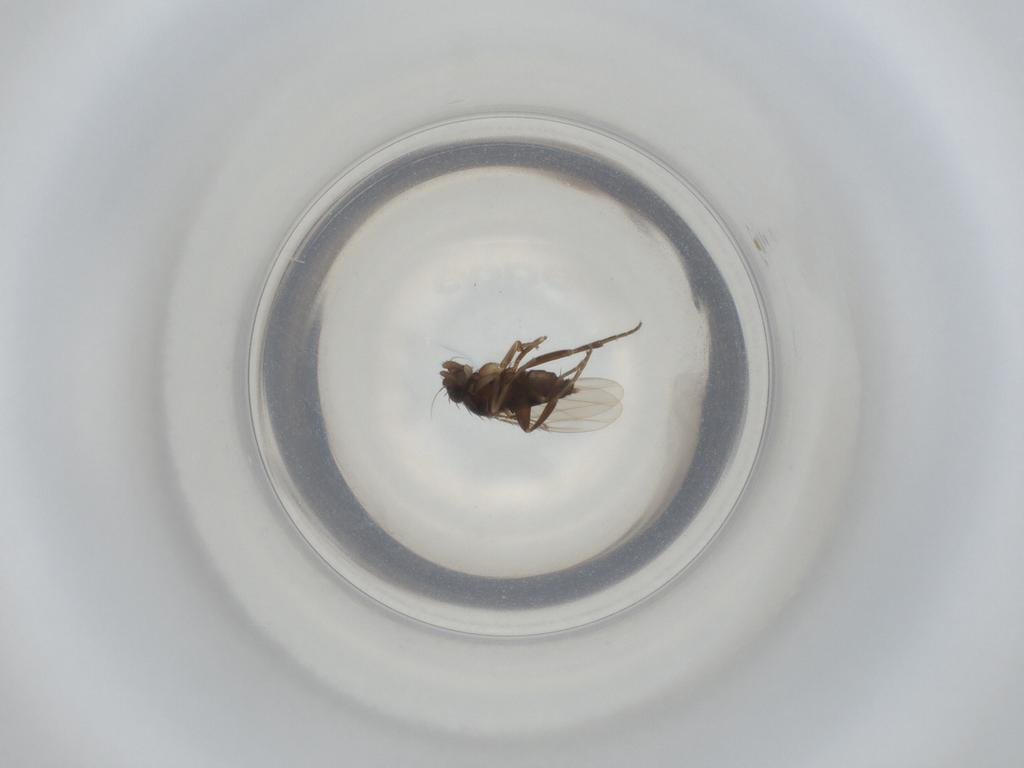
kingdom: Animalia
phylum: Arthropoda
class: Insecta
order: Diptera
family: Phoridae
